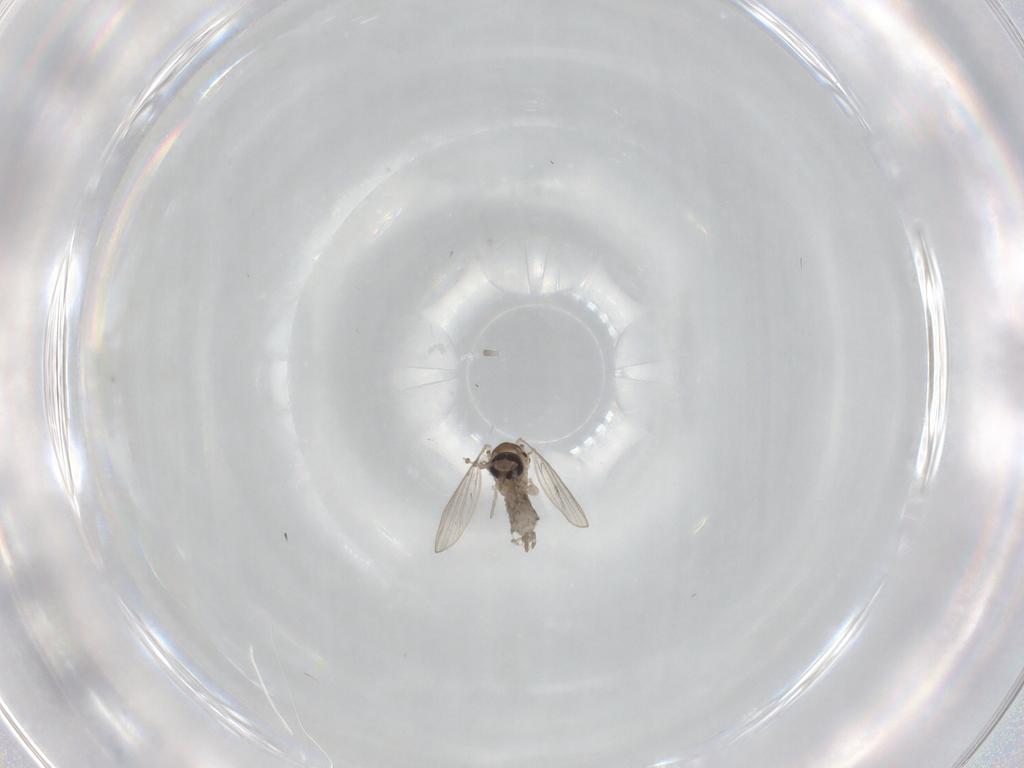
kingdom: Animalia
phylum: Arthropoda
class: Insecta
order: Diptera
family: Psychodidae
